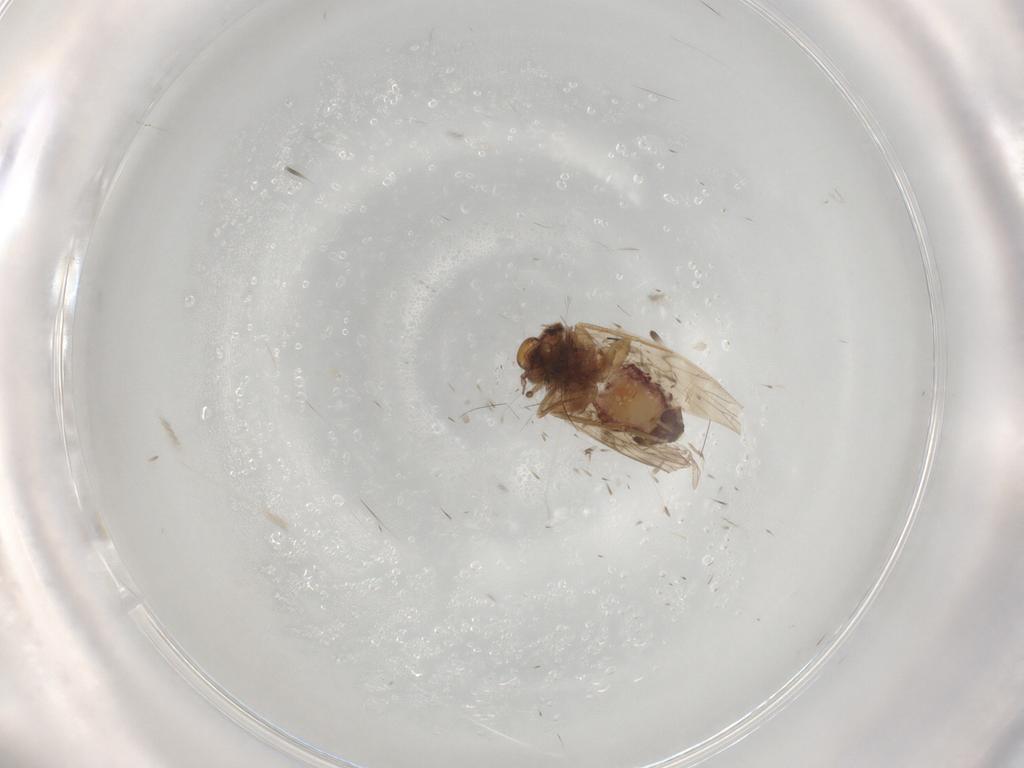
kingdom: Animalia
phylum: Arthropoda
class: Insecta
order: Psocodea
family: Lepidopsocidae
